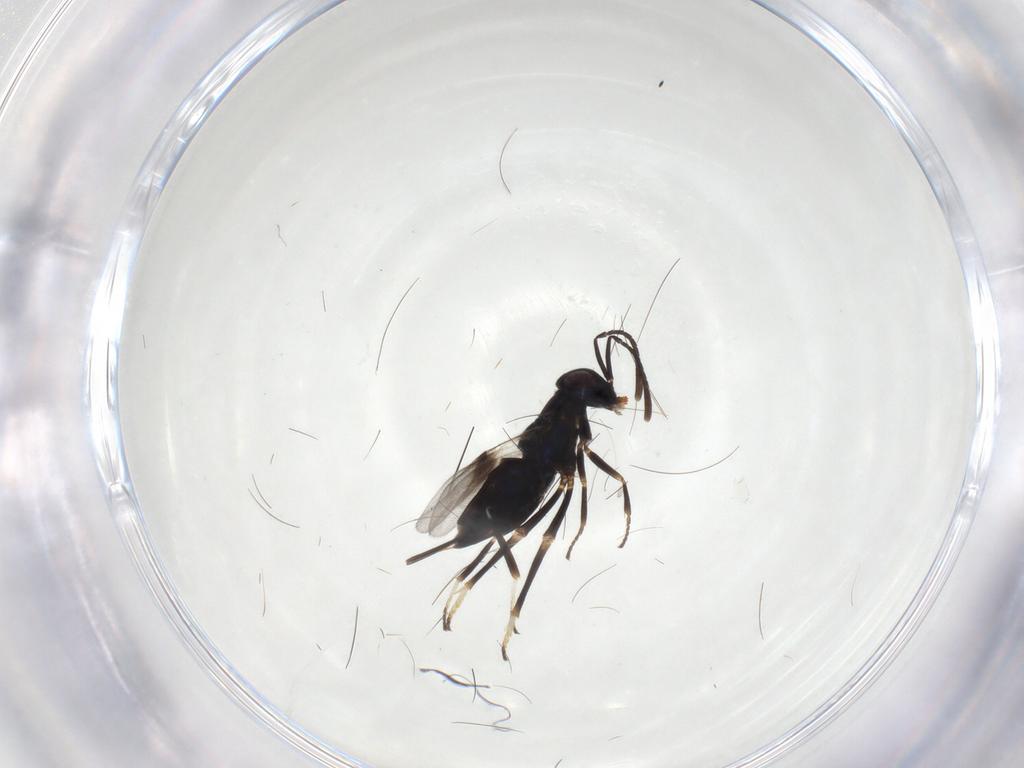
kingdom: Animalia
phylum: Arthropoda
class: Insecta
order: Hymenoptera
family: Encyrtidae
